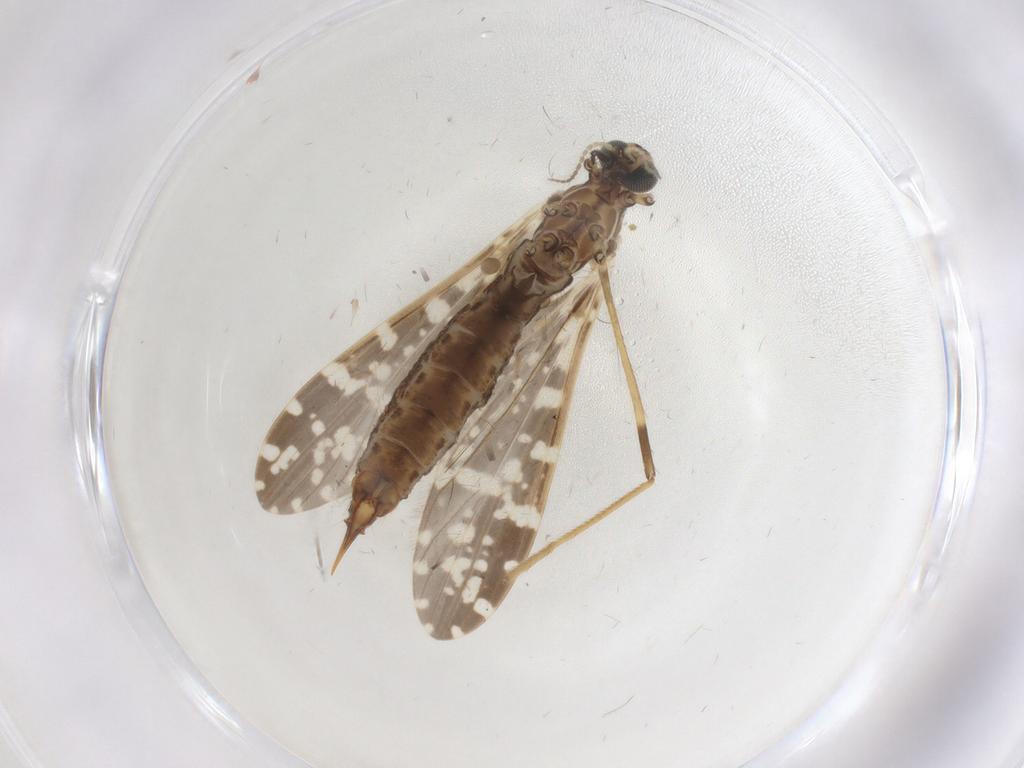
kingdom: Animalia
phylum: Arthropoda
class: Insecta
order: Diptera
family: Limoniidae
